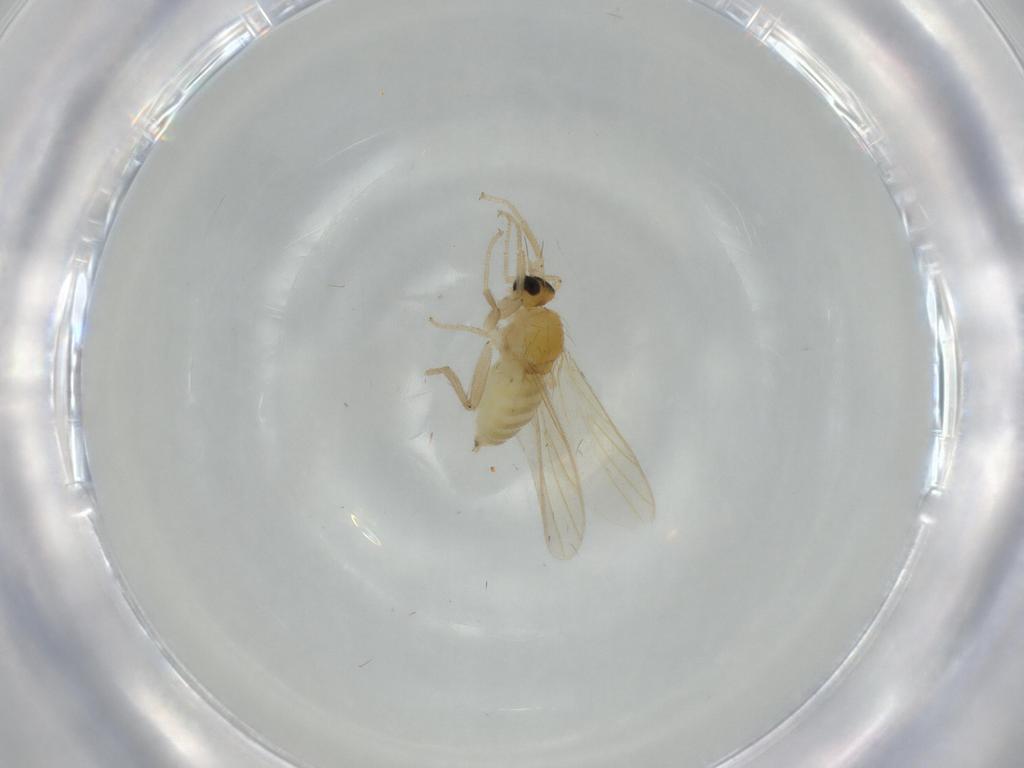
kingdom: Animalia
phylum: Arthropoda
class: Insecta
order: Diptera
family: Hybotidae
